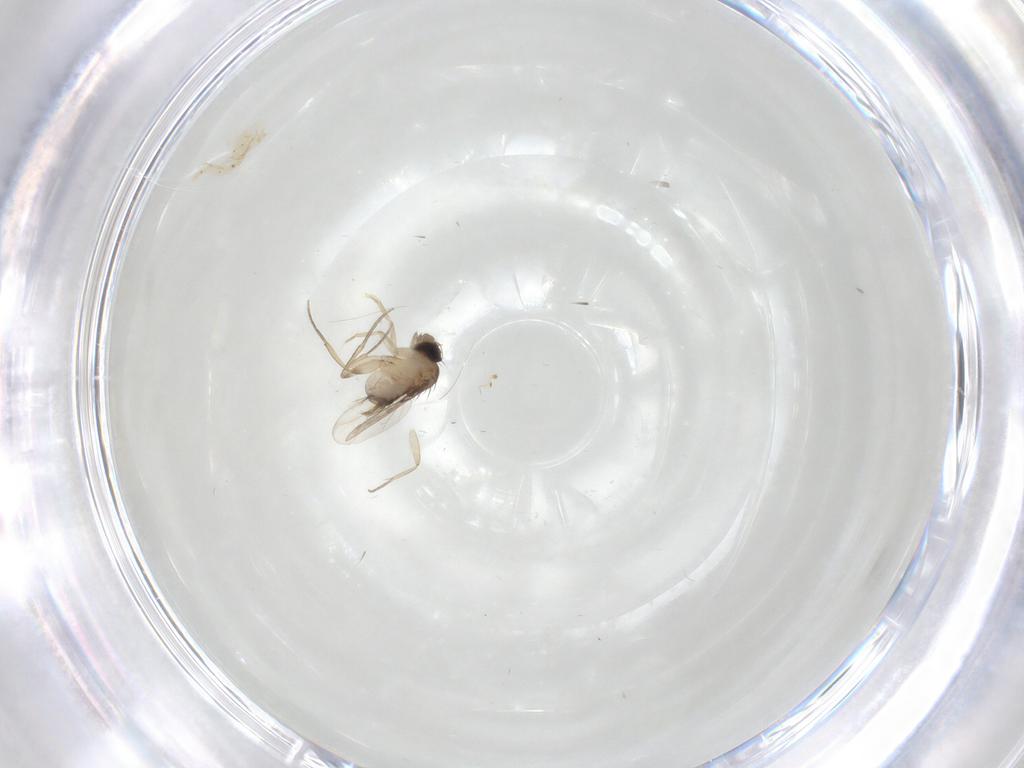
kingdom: Animalia
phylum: Arthropoda
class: Insecta
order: Diptera
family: Phoridae
